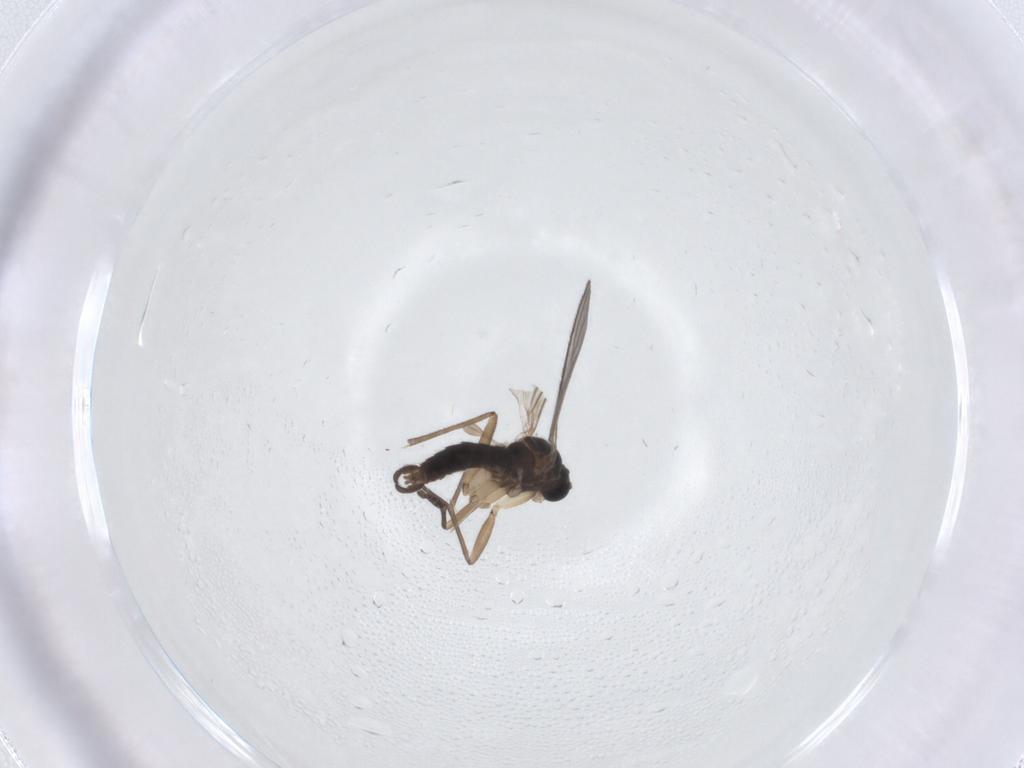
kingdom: Animalia
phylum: Arthropoda
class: Insecta
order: Diptera
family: Sciaridae
